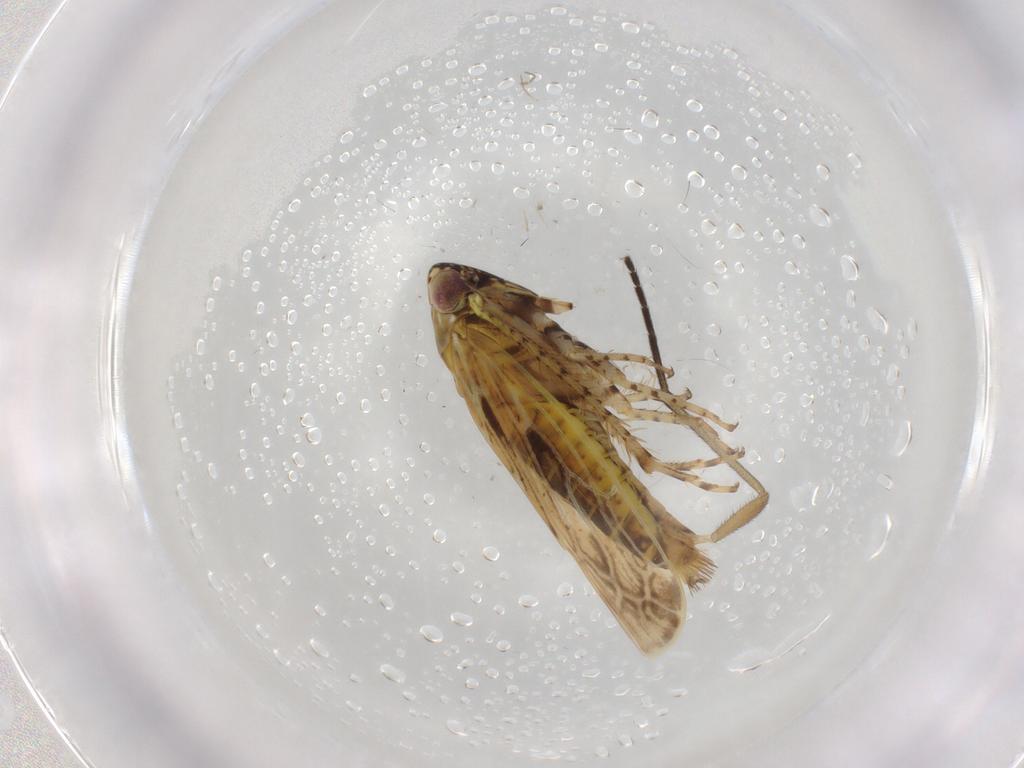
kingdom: Animalia
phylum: Arthropoda
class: Insecta
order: Hemiptera
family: Cicadellidae
